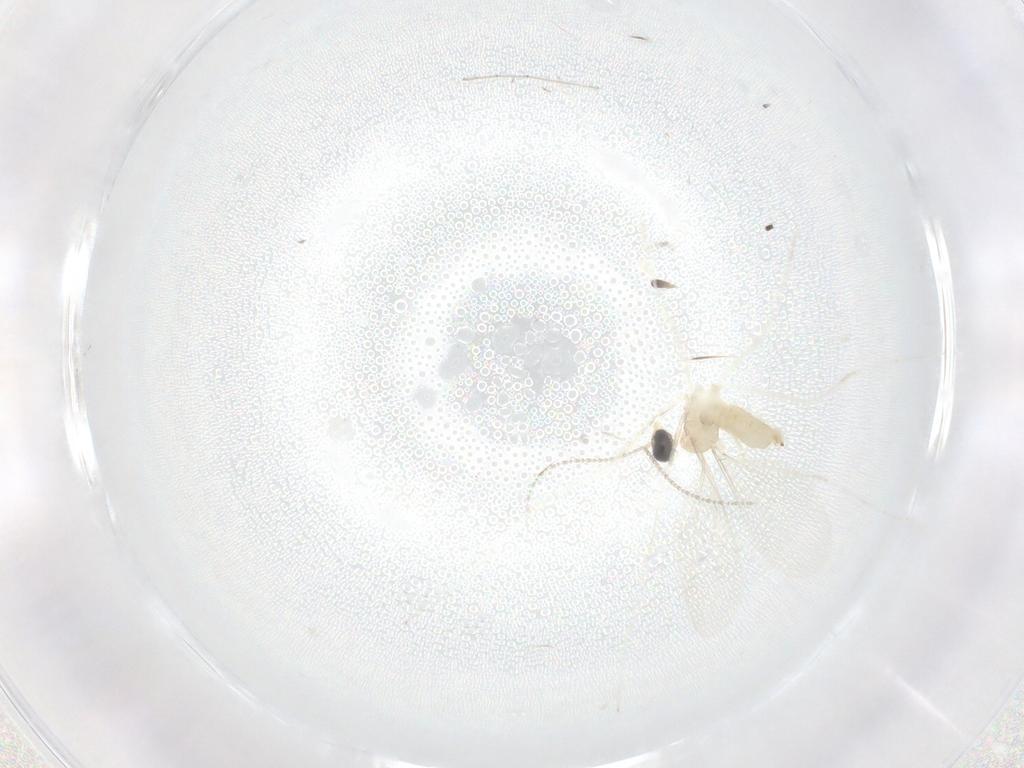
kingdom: Animalia
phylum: Arthropoda
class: Insecta
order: Diptera
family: Cecidomyiidae
